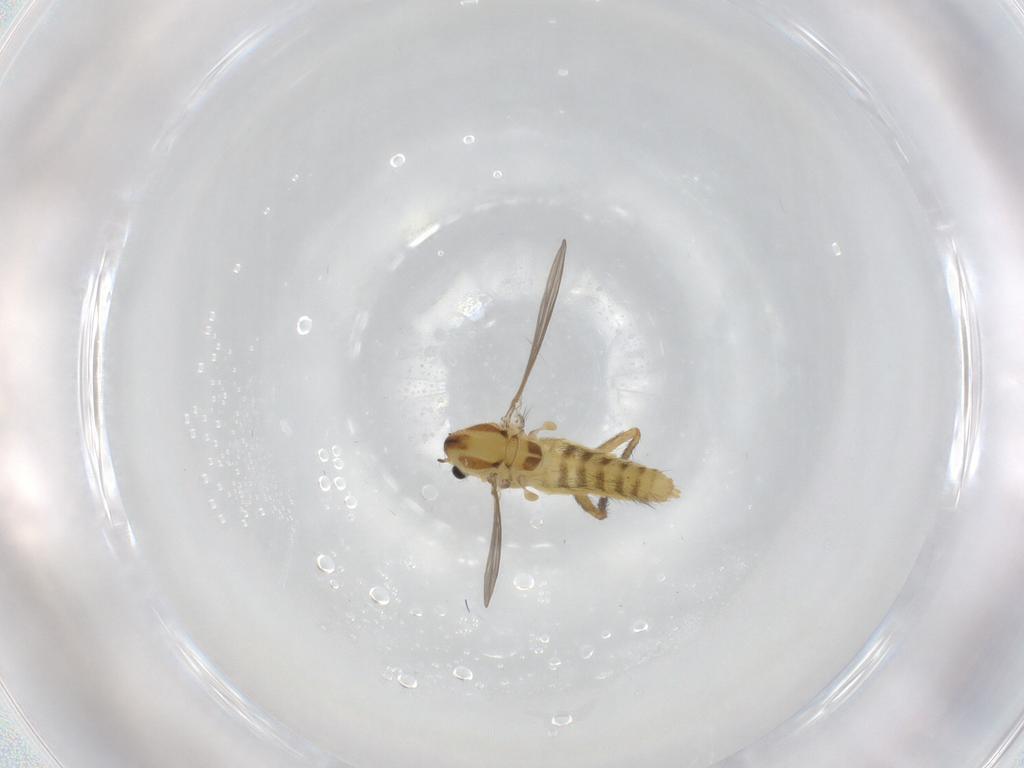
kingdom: Animalia
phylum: Arthropoda
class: Insecta
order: Diptera
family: Chironomidae
